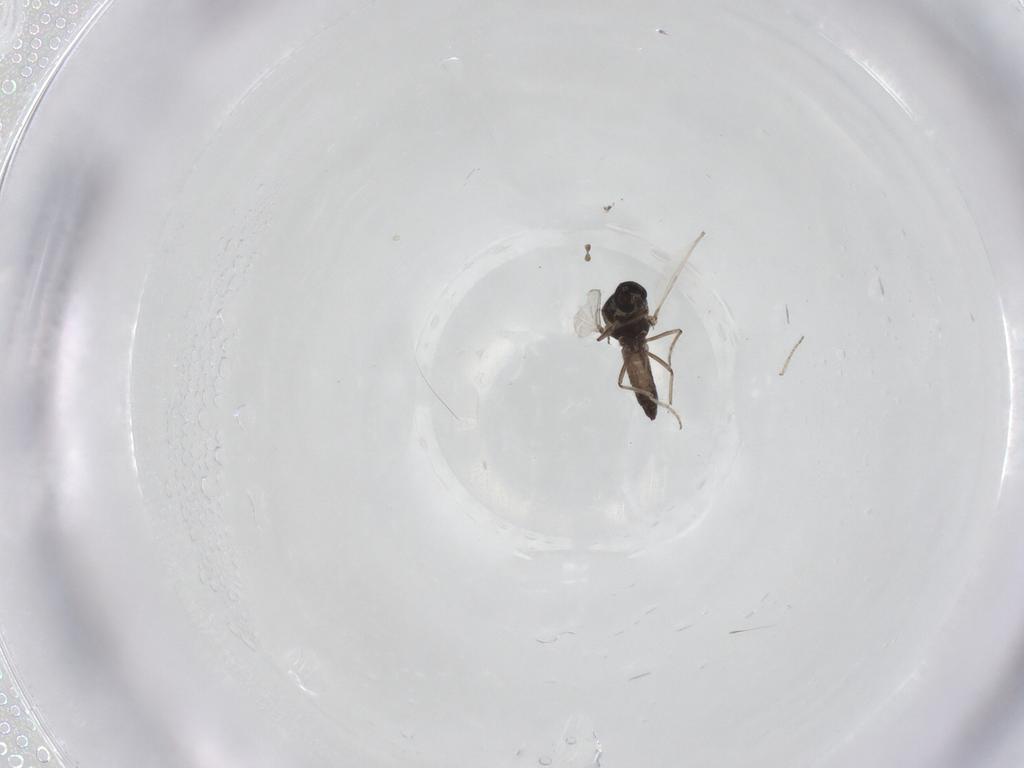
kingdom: Animalia
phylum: Arthropoda
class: Insecta
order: Diptera
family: Ceratopogonidae
